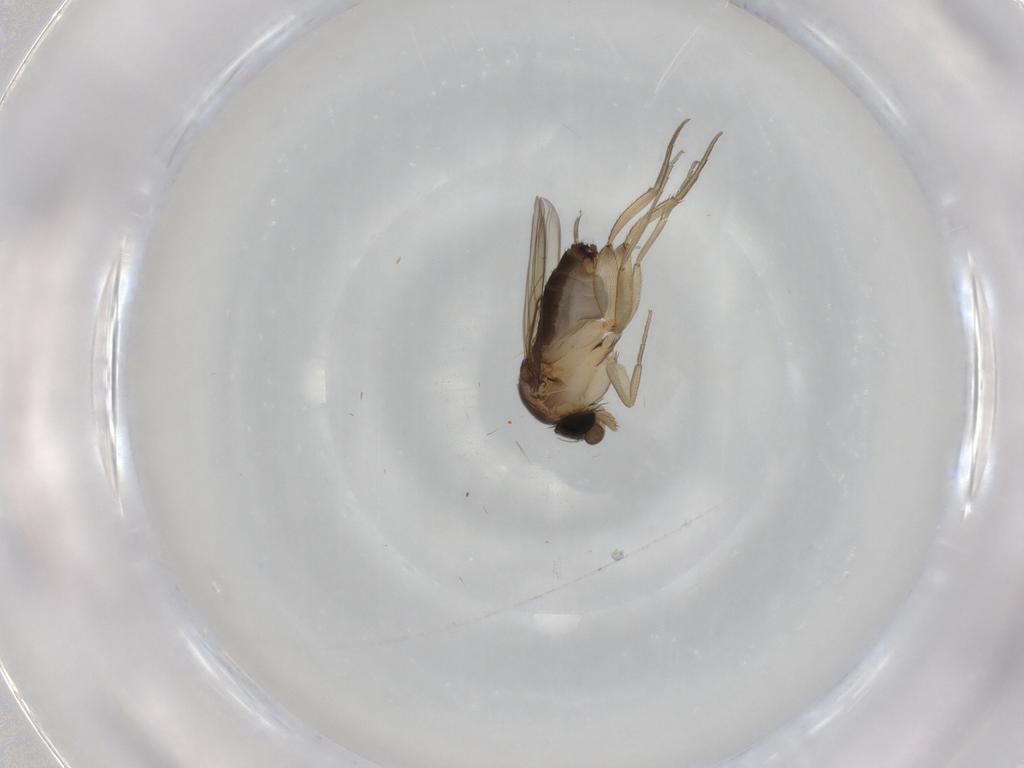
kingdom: Animalia
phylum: Arthropoda
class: Insecta
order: Diptera
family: Phoridae
